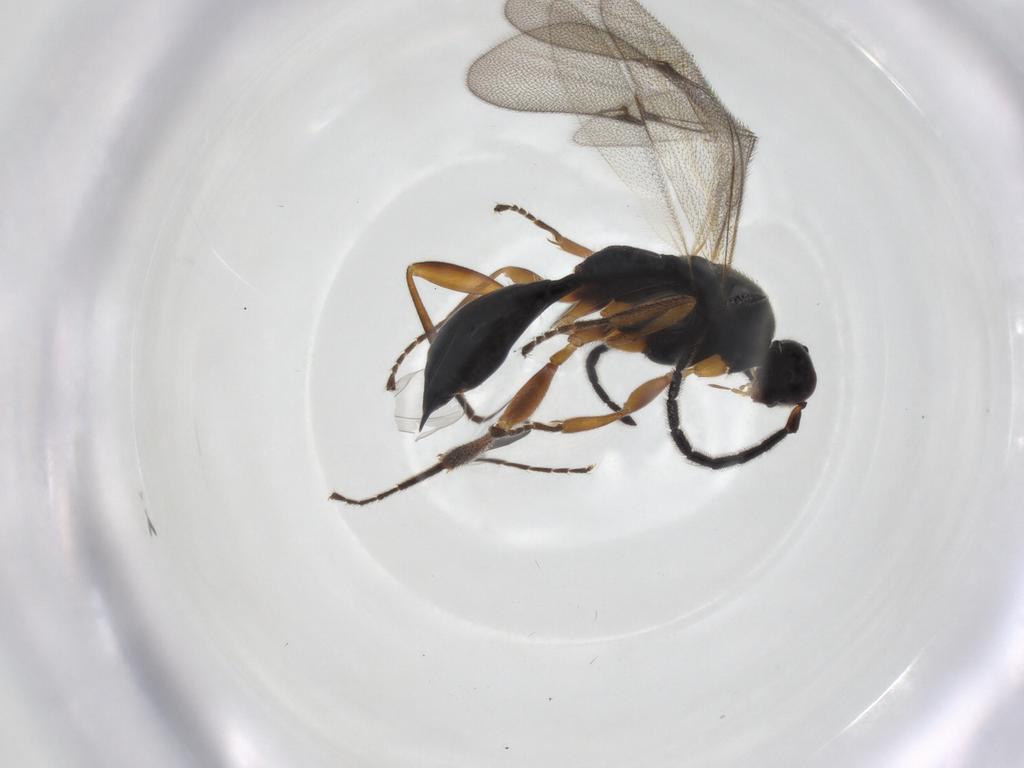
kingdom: Animalia
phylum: Arthropoda
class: Insecta
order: Hymenoptera
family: Proctotrupidae
